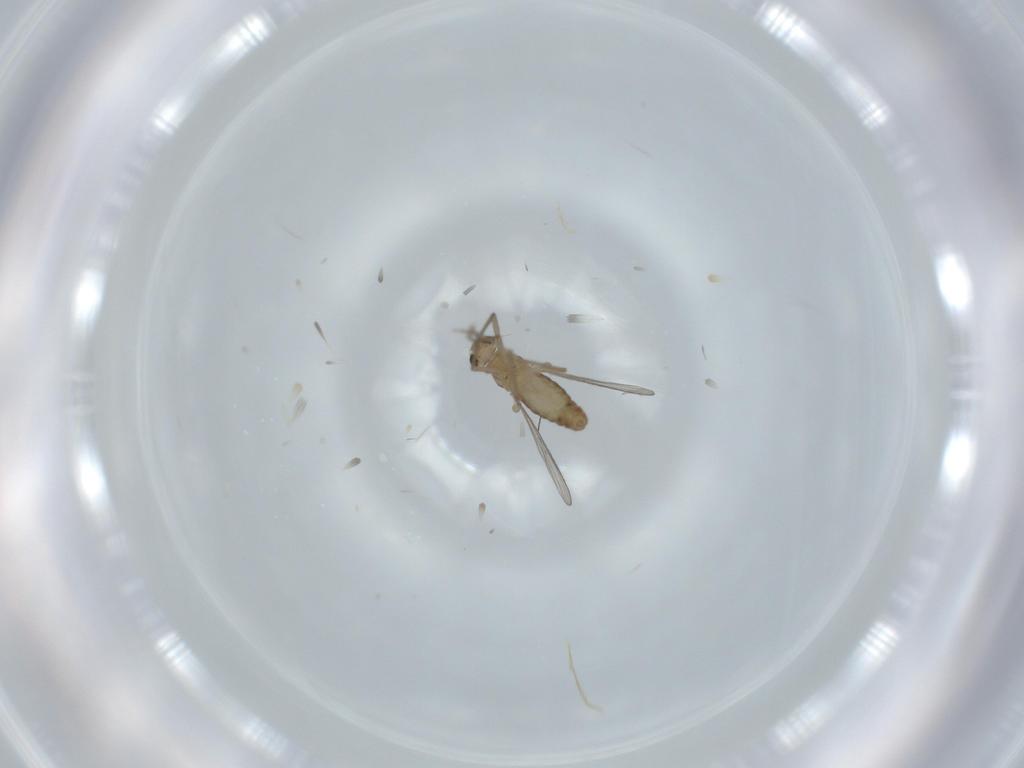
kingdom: Animalia
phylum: Arthropoda
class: Insecta
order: Diptera
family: Chironomidae
